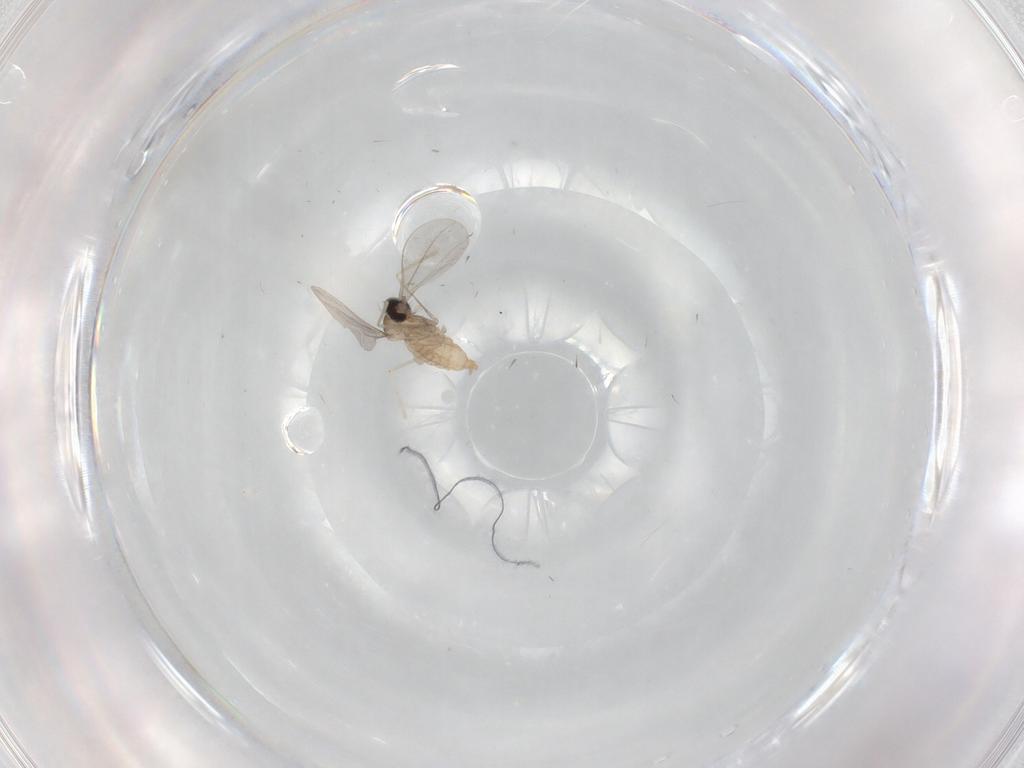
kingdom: Animalia
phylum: Arthropoda
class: Insecta
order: Diptera
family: Cecidomyiidae
